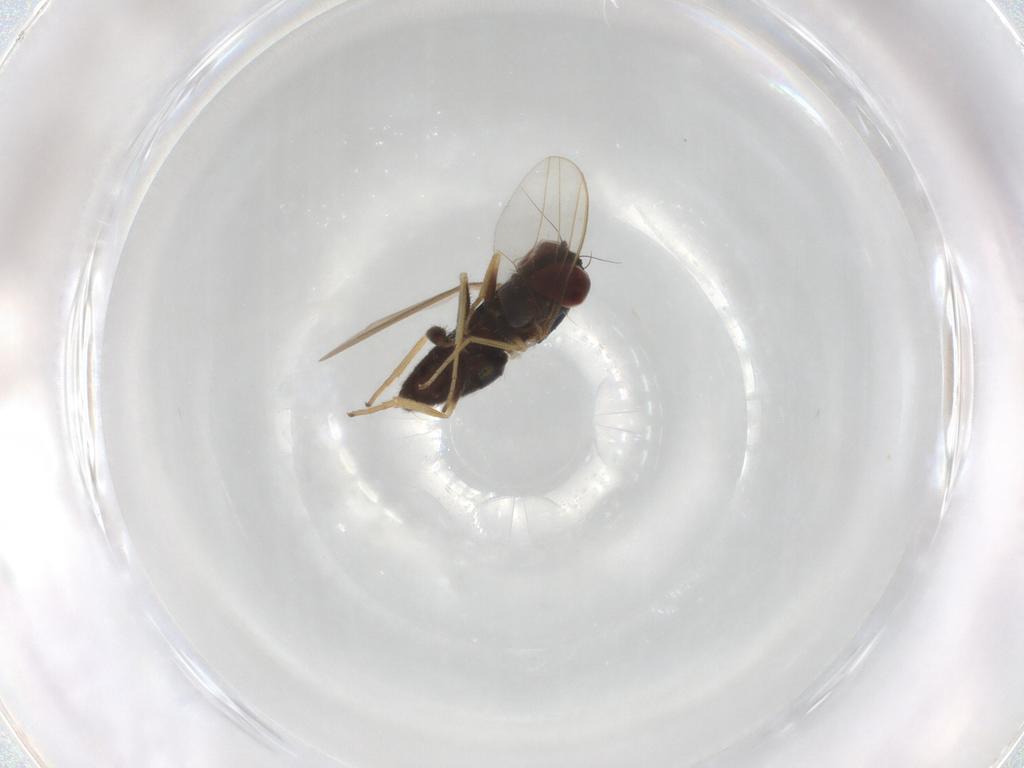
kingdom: Animalia
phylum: Arthropoda
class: Insecta
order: Diptera
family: Dolichopodidae
